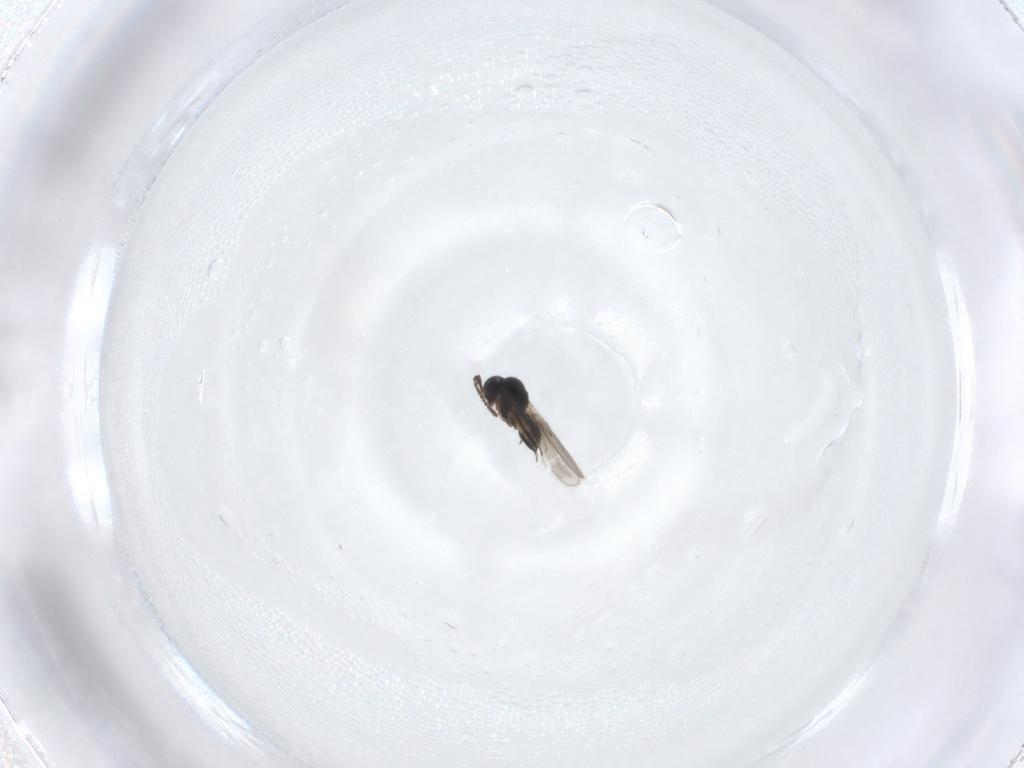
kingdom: Animalia
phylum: Arthropoda
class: Insecta
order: Hymenoptera
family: Scelionidae
